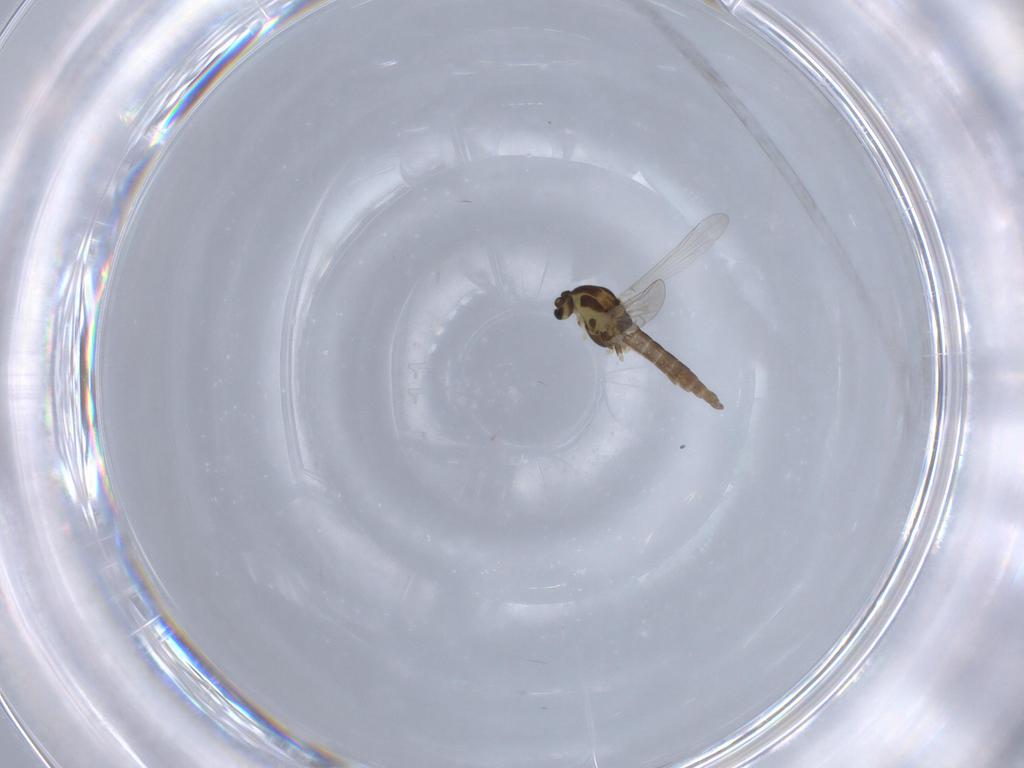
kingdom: Animalia
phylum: Arthropoda
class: Insecta
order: Diptera
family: Chironomidae
